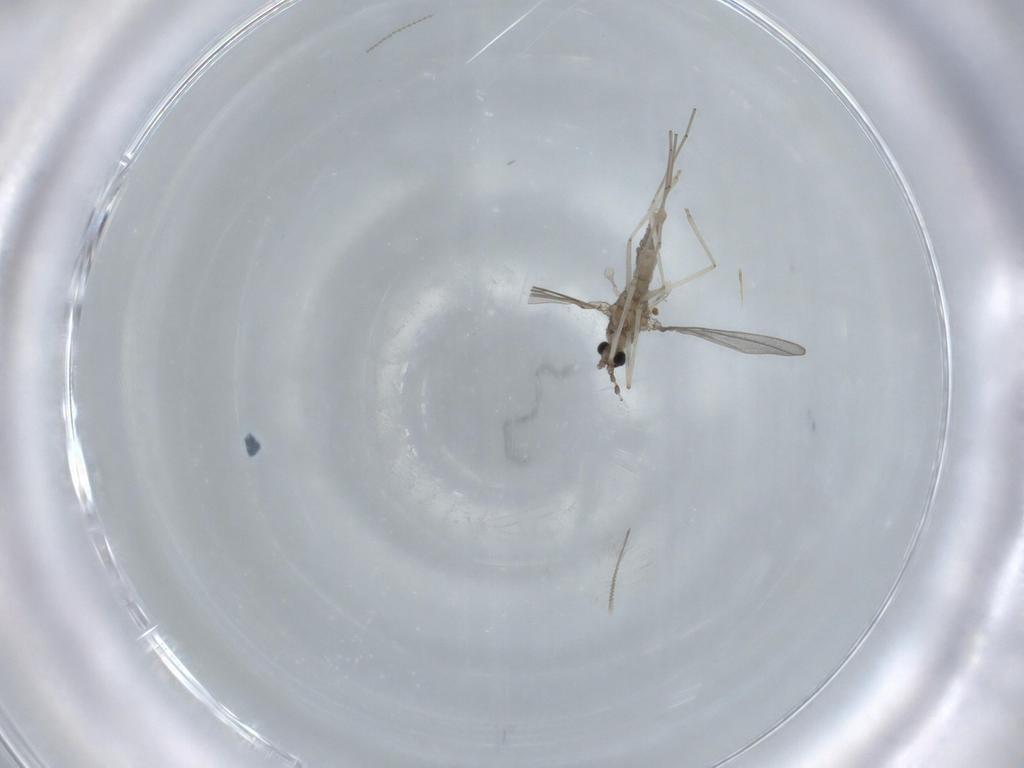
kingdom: Animalia
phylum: Arthropoda
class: Insecta
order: Diptera
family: Cecidomyiidae
